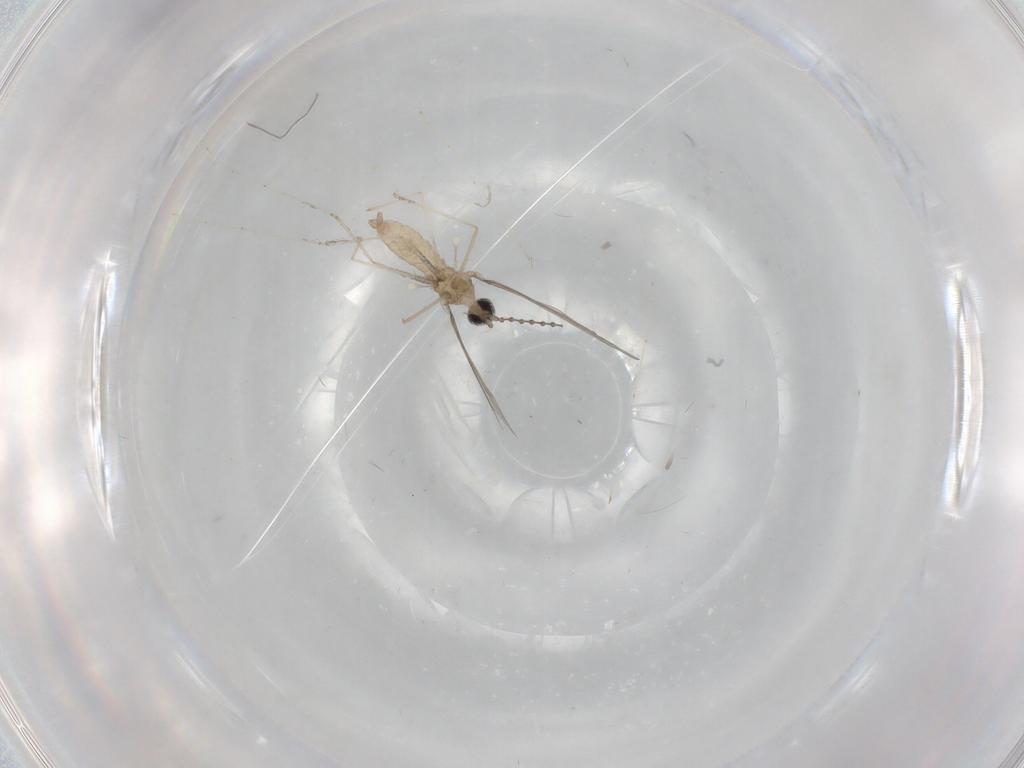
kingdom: Animalia
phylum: Arthropoda
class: Insecta
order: Diptera
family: Cecidomyiidae
